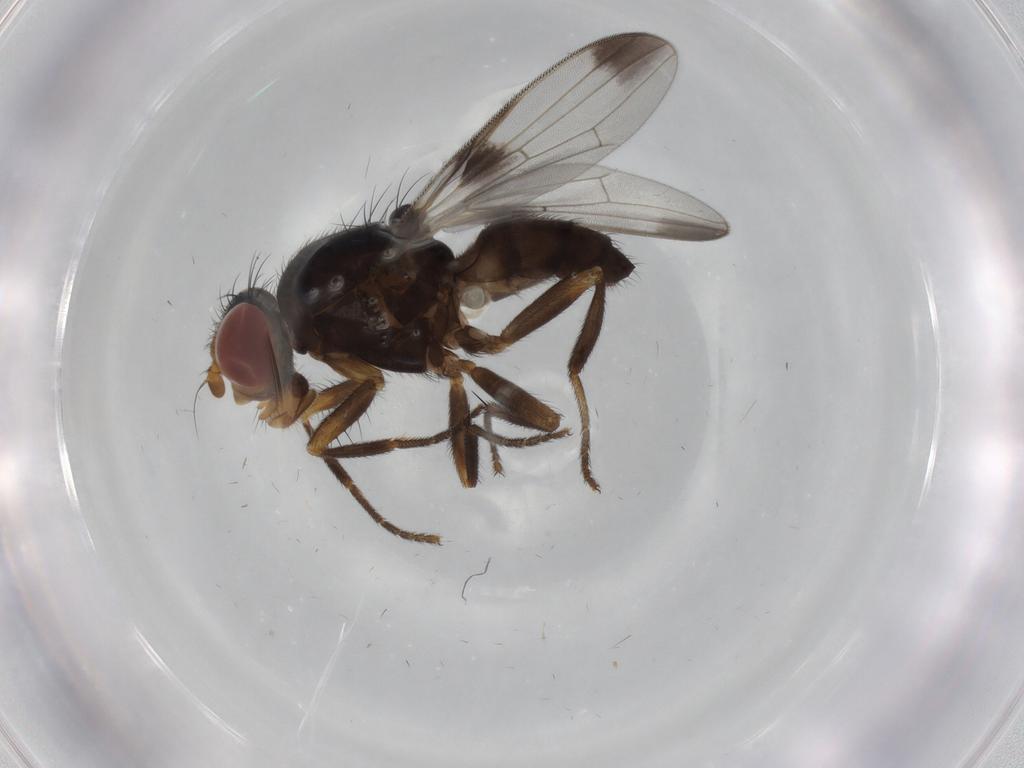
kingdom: Animalia
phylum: Arthropoda
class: Insecta
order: Diptera
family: Ulidiidae
